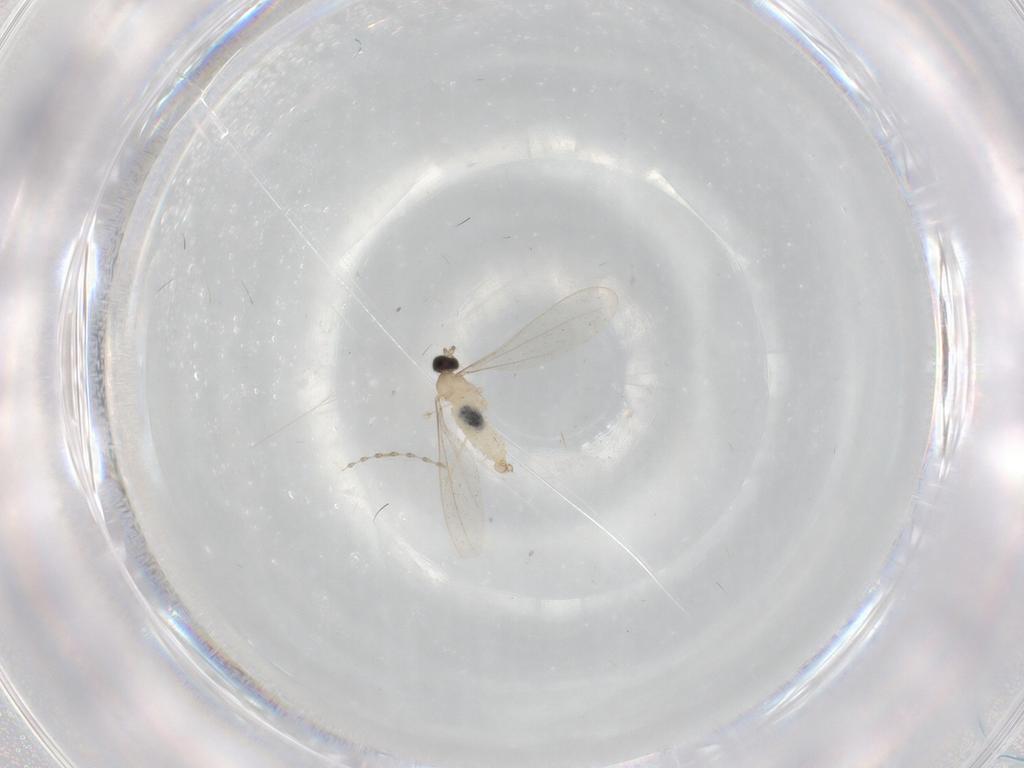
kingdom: Animalia
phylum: Arthropoda
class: Insecta
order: Diptera
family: Cecidomyiidae
